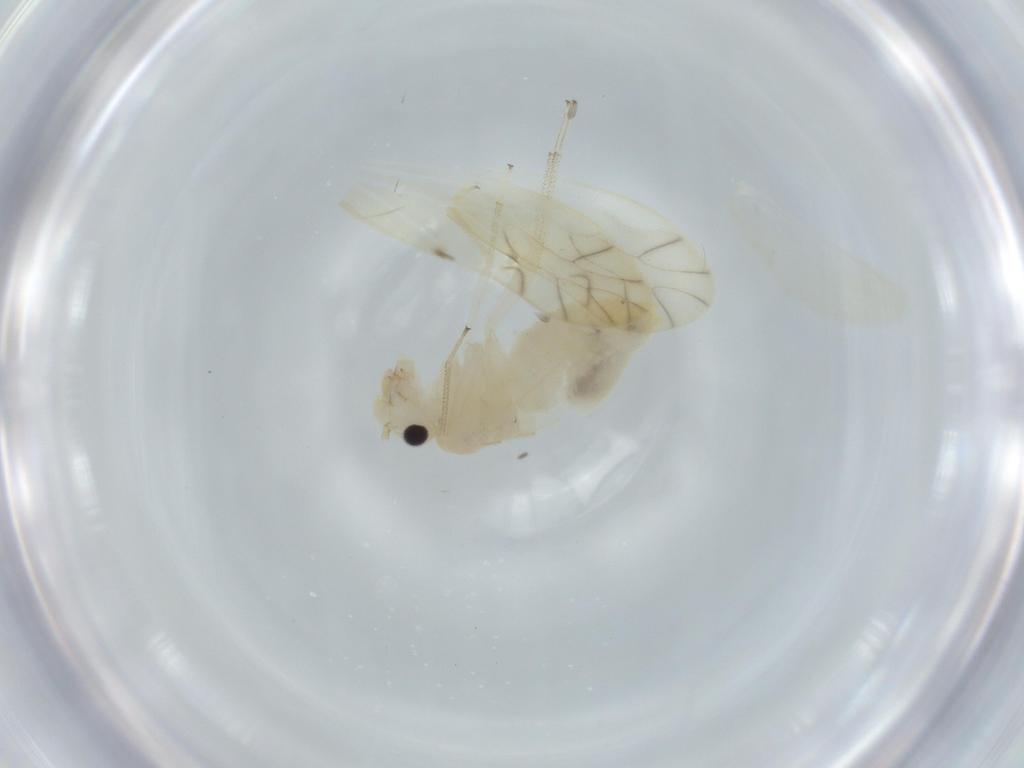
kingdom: Animalia
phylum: Arthropoda
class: Insecta
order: Psocodea
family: Caeciliusidae
